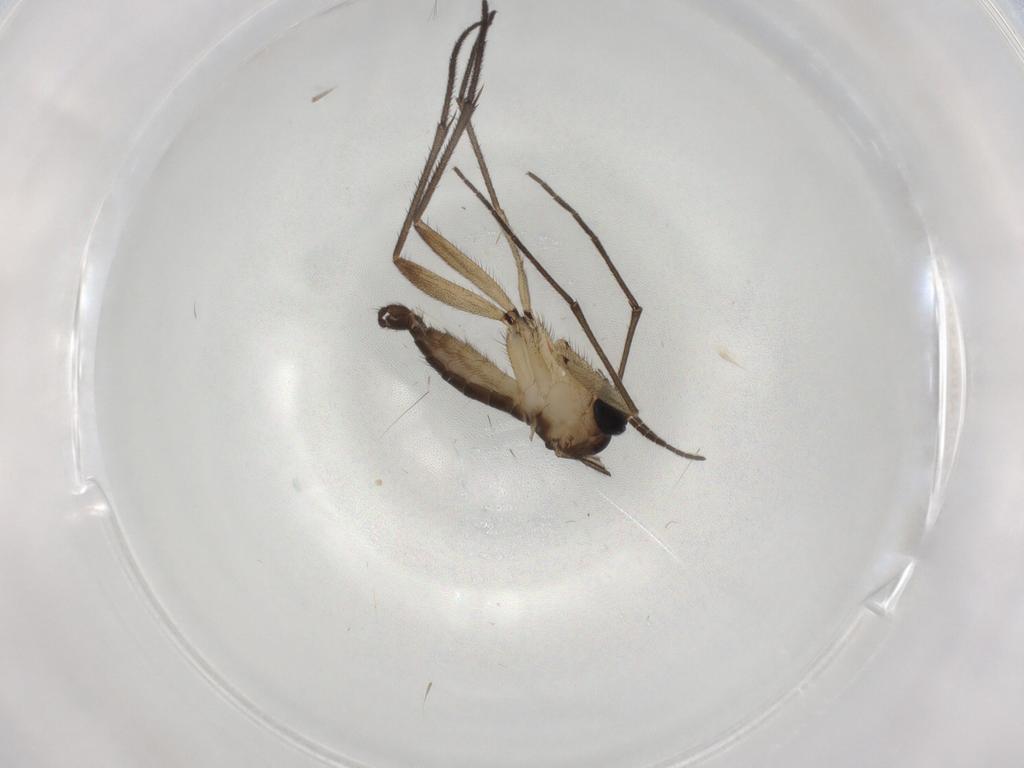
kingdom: Animalia
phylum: Arthropoda
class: Insecta
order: Diptera
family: Sciaridae
